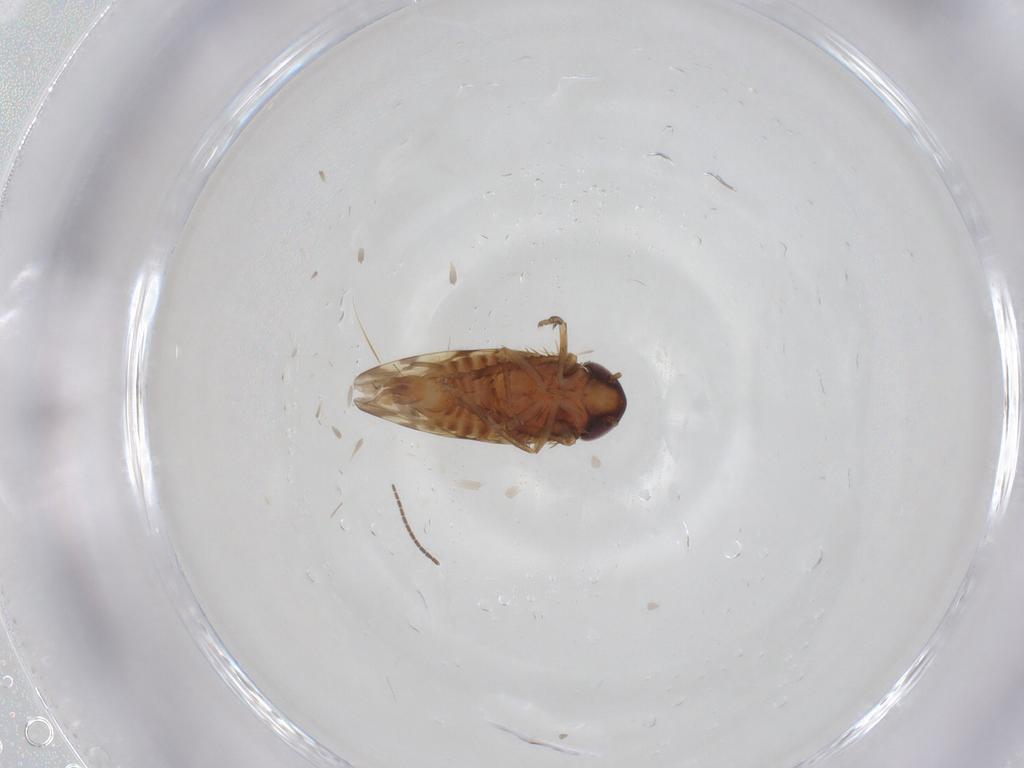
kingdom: Animalia
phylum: Arthropoda
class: Insecta
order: Hemiptera
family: Cicadellidae
